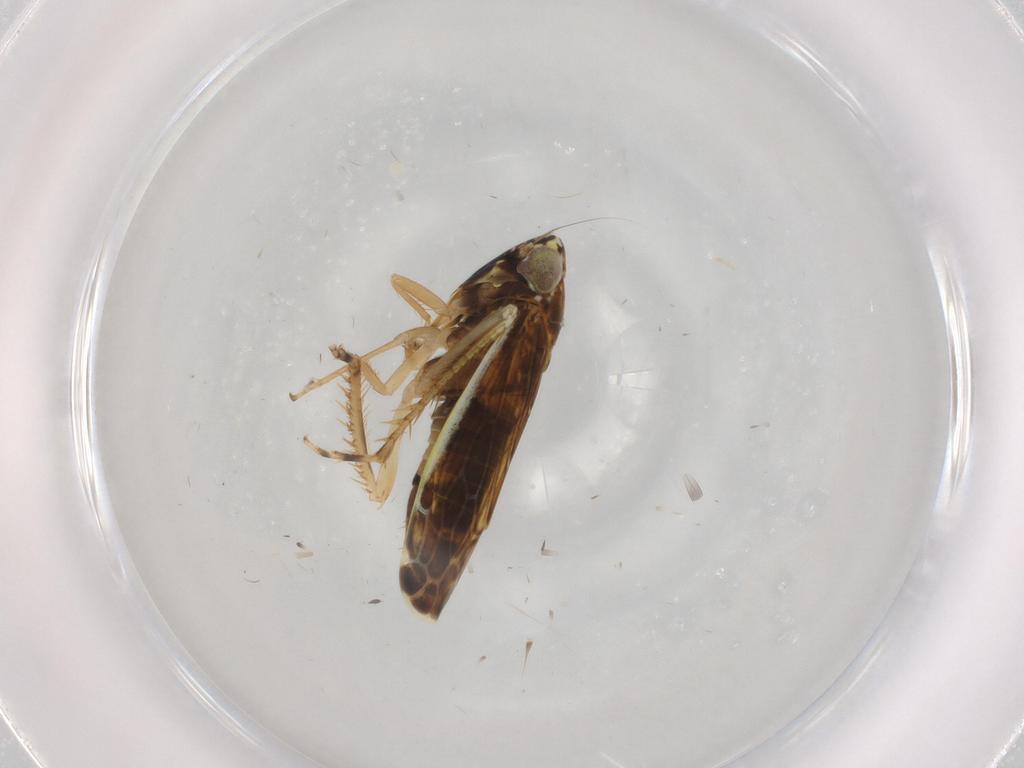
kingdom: Animalia
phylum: Arthropoda
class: Insecta
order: Hemiptera
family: Cicadellidae
